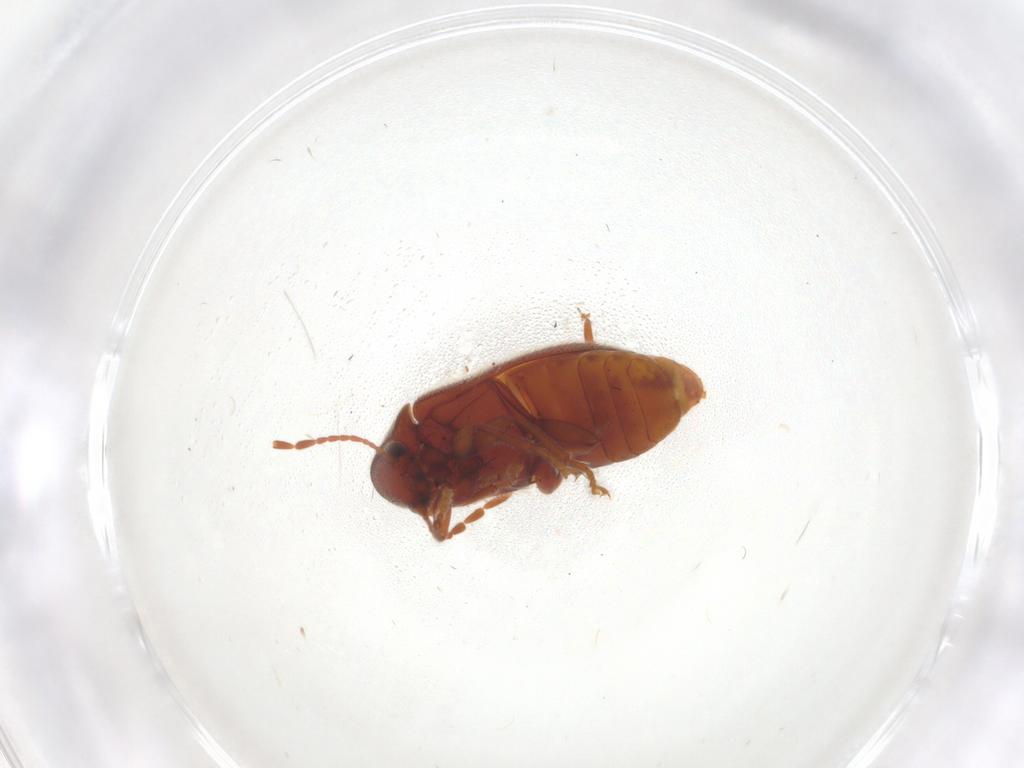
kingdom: Animalia
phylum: Arthropoda
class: Insecta
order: Coleoptera
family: Ptinidae
